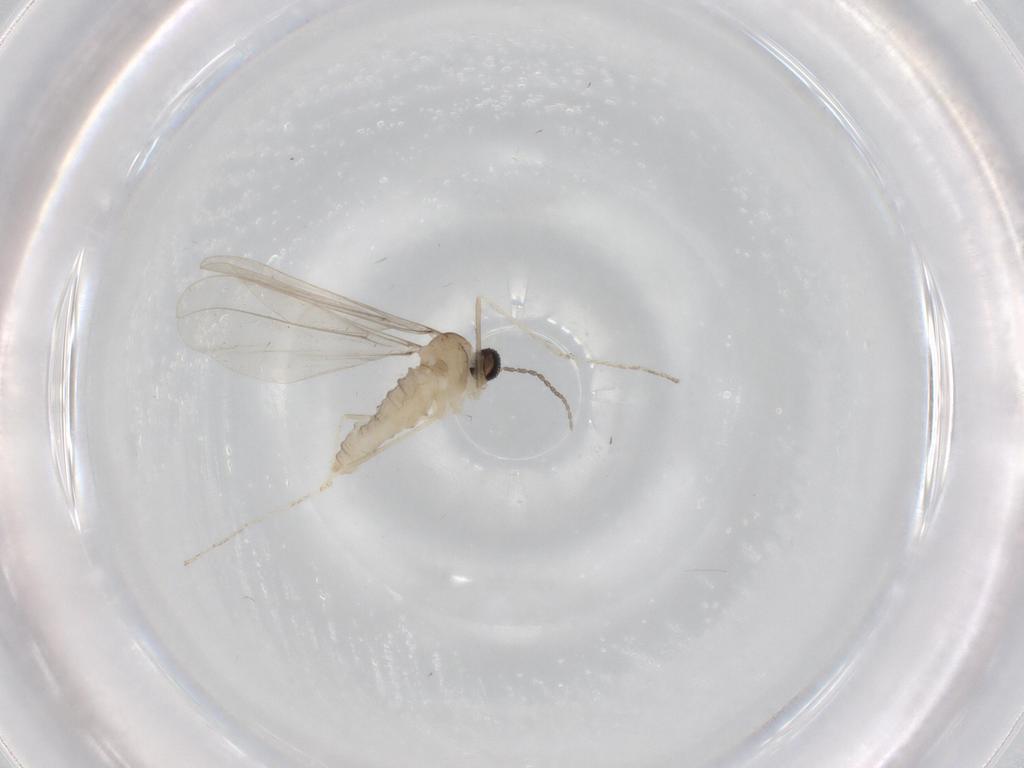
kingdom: Animalia
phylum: Arthropoda
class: Insecta
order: Diptera
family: Cecidomyiidae
